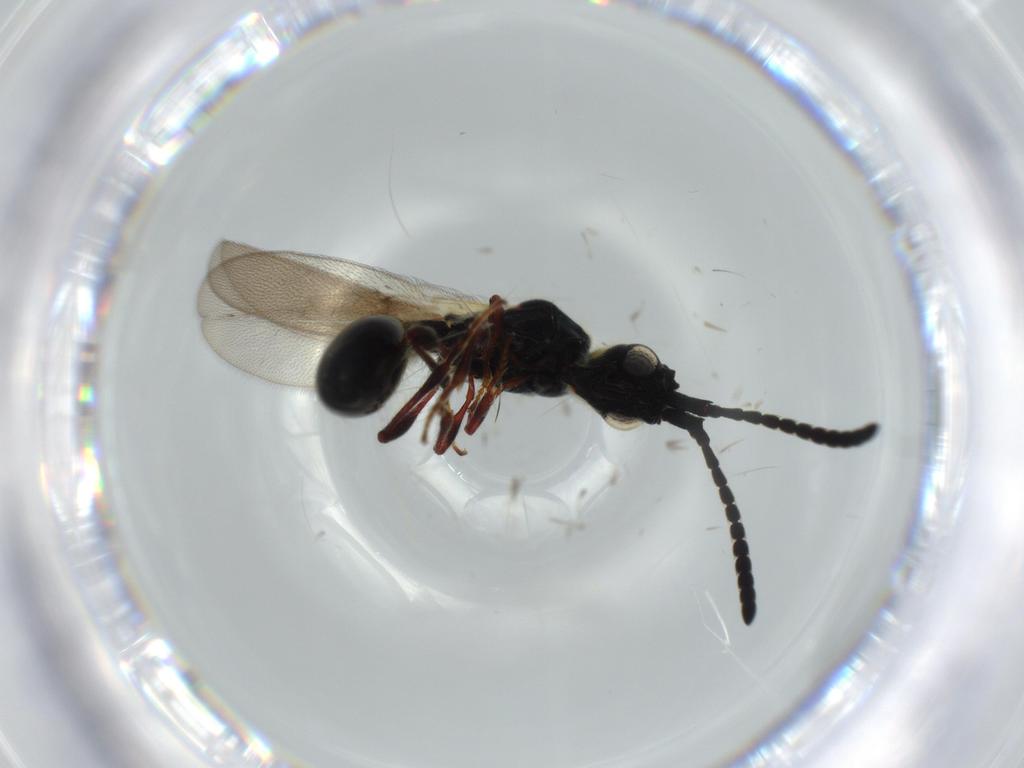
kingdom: Animalia
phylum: Arthropoda
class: Insecta
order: Hymenoptera
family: Diapriidae
